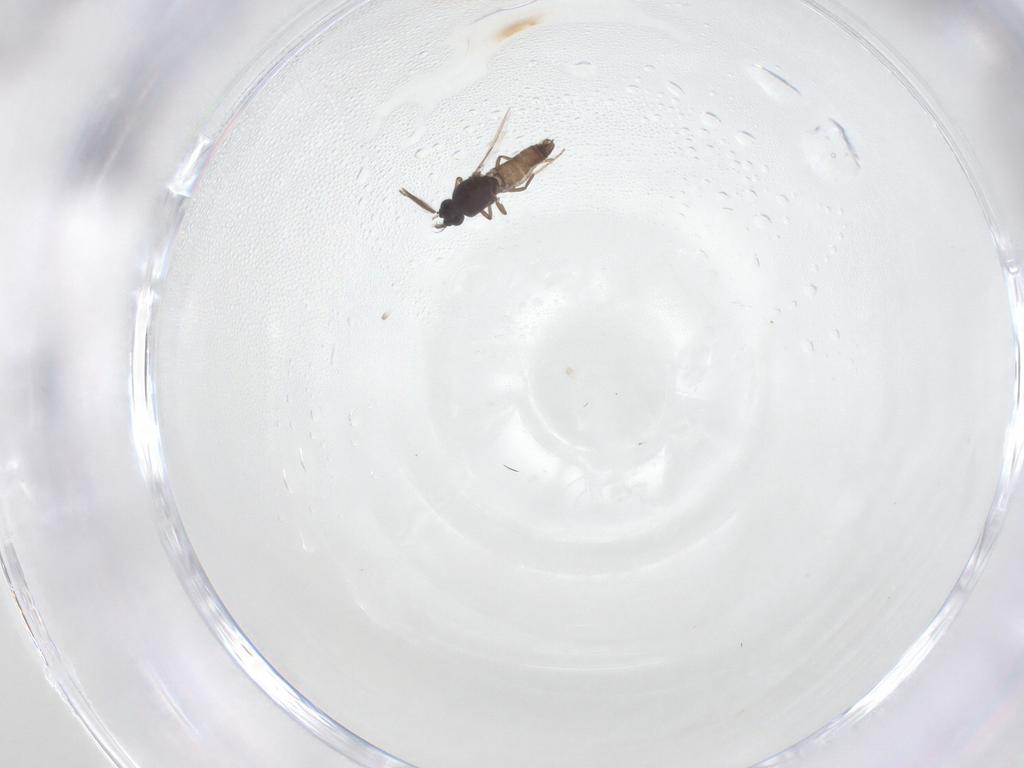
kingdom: Animalia
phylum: Arthropoda
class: Insecta
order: Diptera
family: Ceratopogonidae
